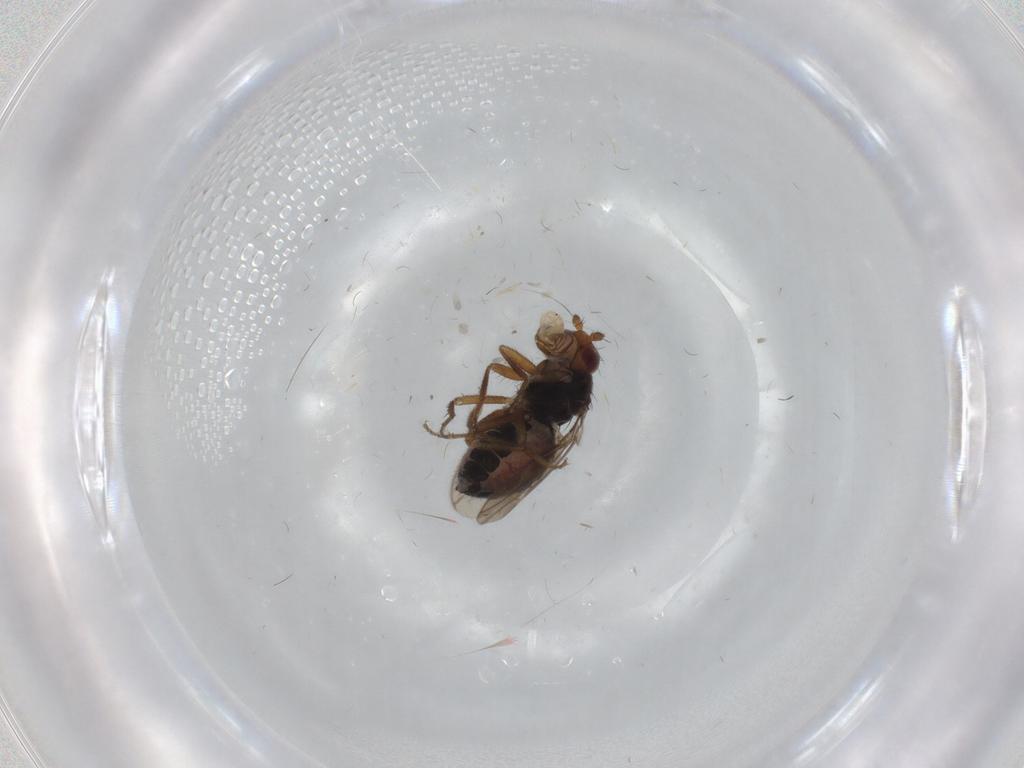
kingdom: Animalia
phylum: Arthropoda
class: Insecta
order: Diptera
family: Sphaeroceridae
